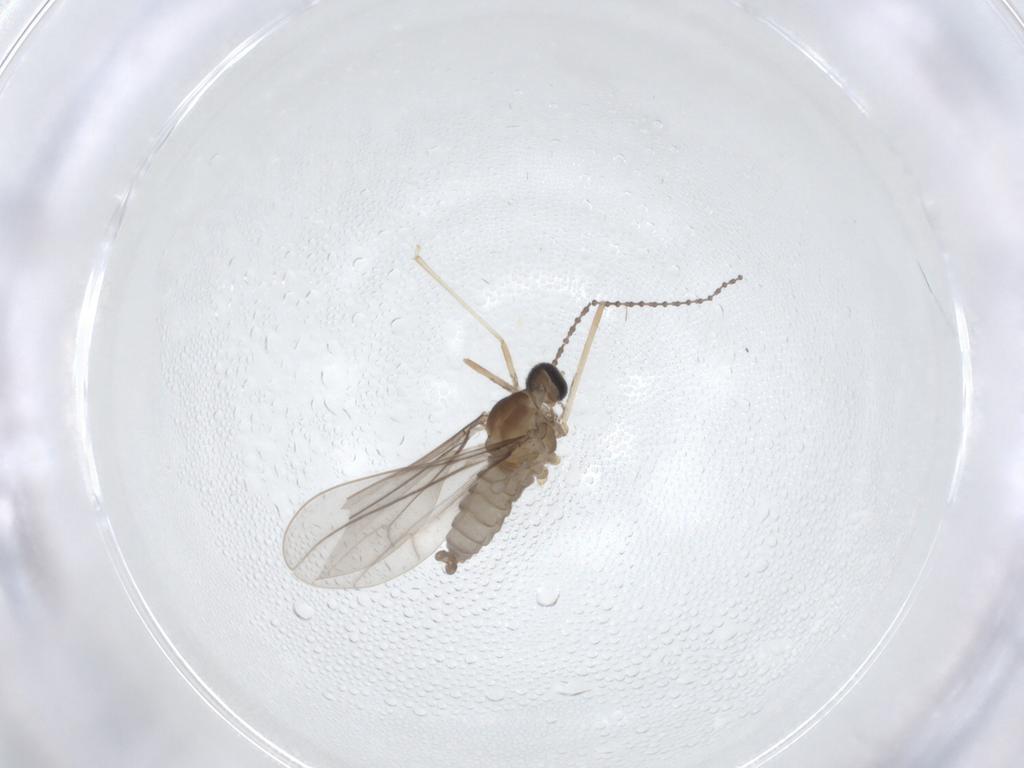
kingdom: Animalia
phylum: Arthropoda
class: Insecta
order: Diptera
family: Cecidomyiidae
